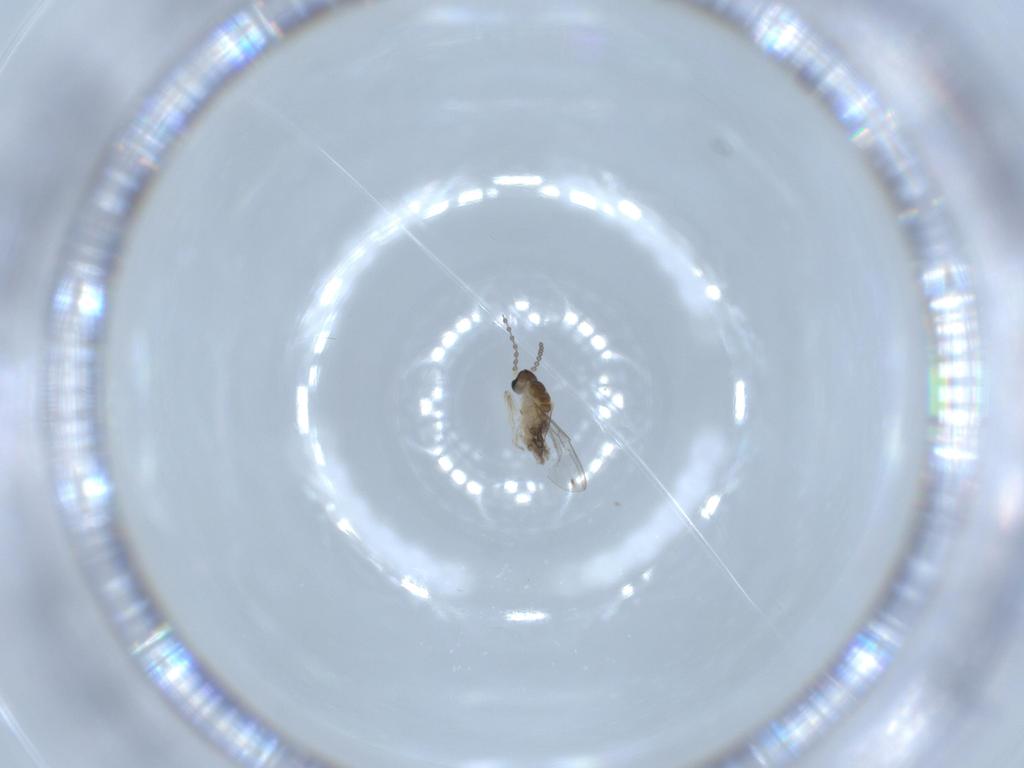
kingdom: Animalia
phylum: Arthropoda
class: Insecta
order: Diptera
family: Cecidomyiidae
